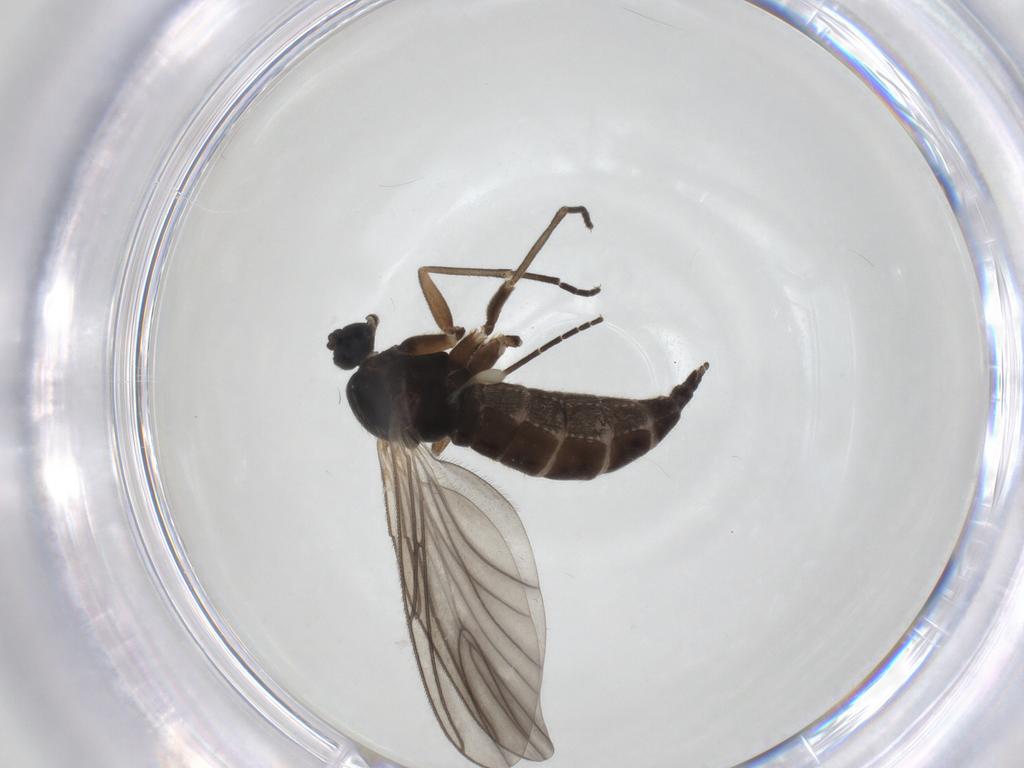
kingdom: Animalia
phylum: Arthropoda
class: Insecta
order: Diptera
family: Sciaridae
